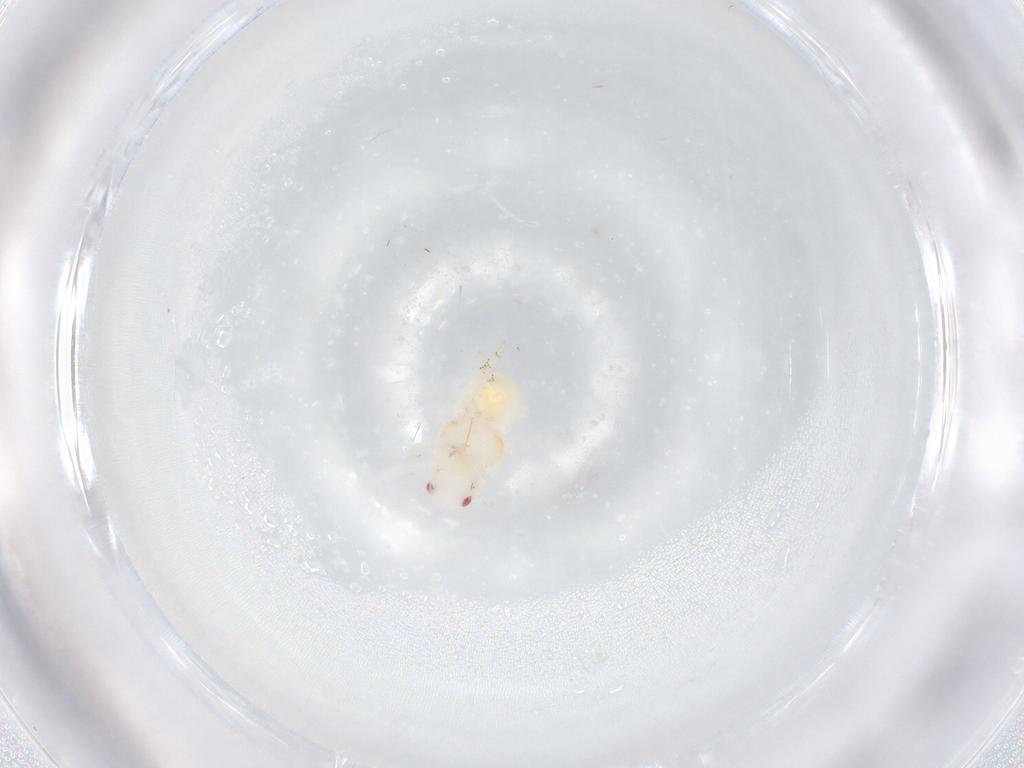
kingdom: Animalia
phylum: Arthropoda
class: Insecta
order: Hemiptera
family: Flatidae
